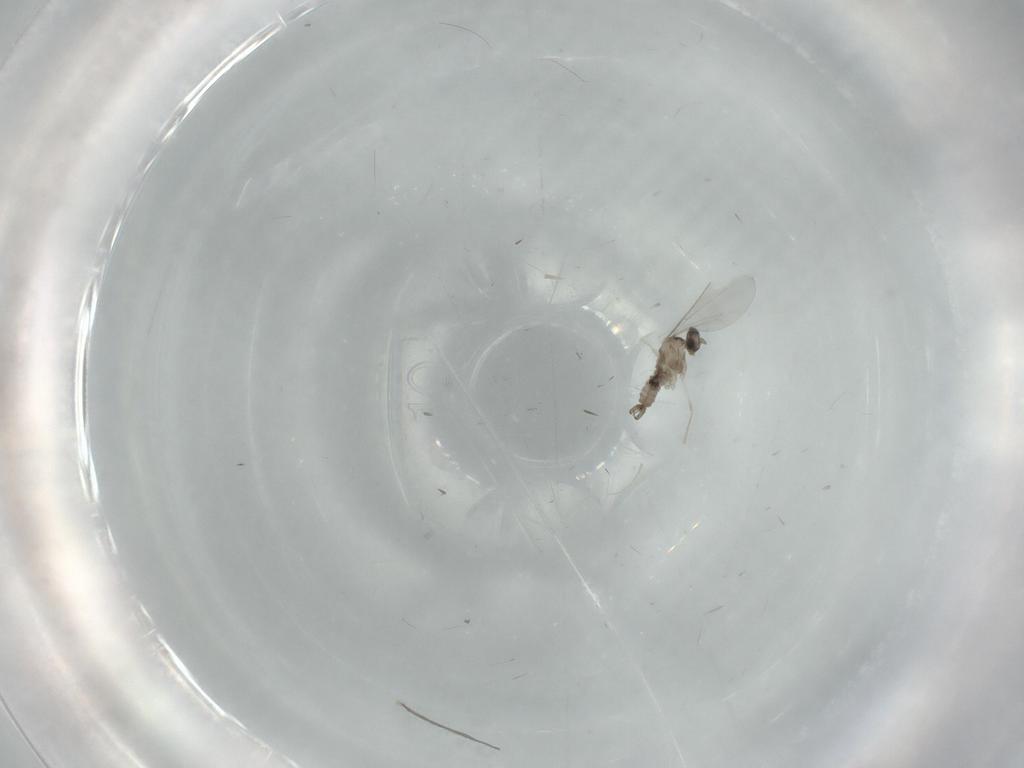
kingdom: Animalia
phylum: Arthropoda
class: Insecta
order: Diptera
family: Cecidomyiidae
